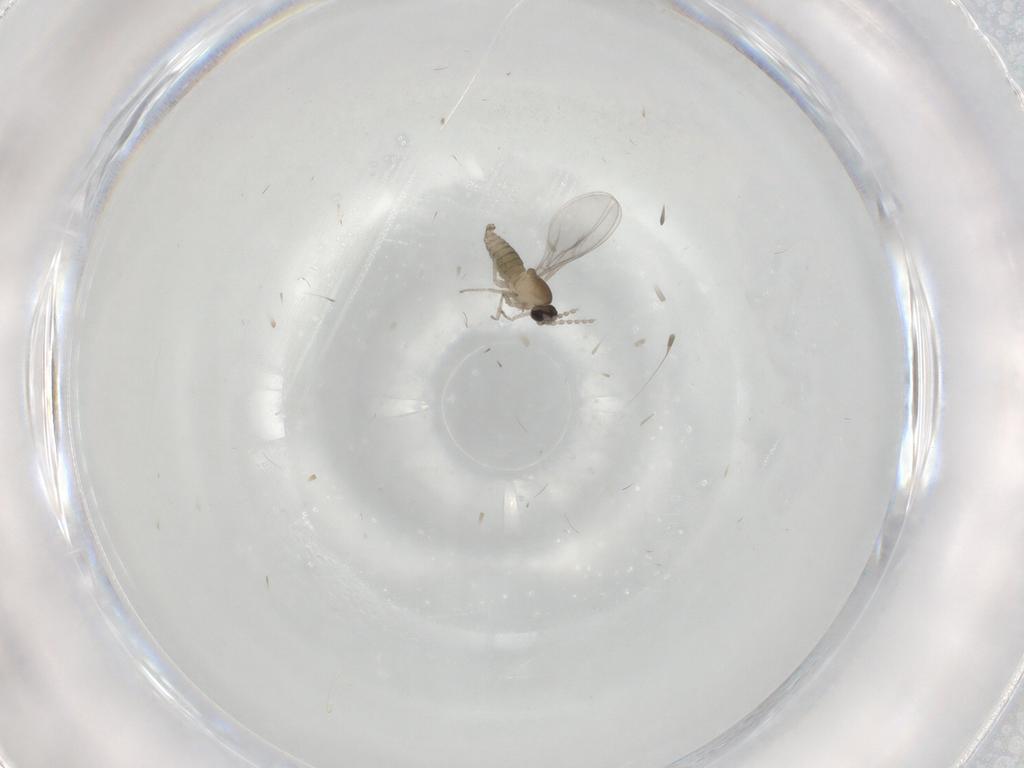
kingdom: Animalia
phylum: Arthropoda
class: Insecta
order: Diptera
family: Cecidomyiidae
